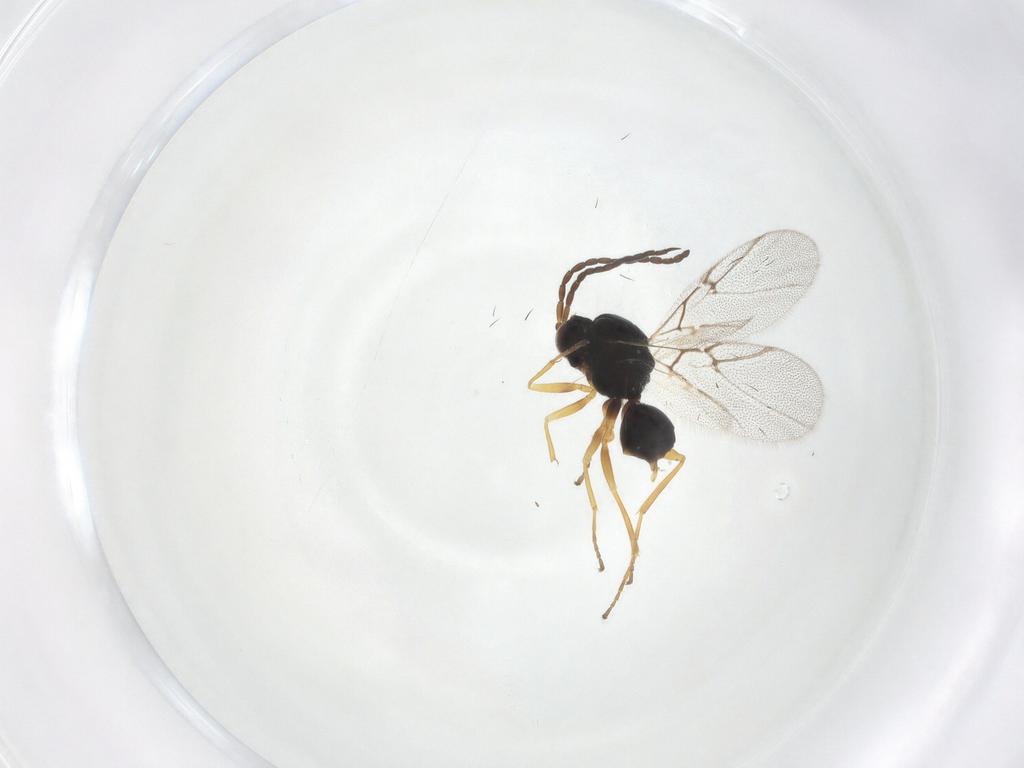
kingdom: Animalia
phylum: Arthropoda
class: Insecta
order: Hymenoptera
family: Cynipidae
